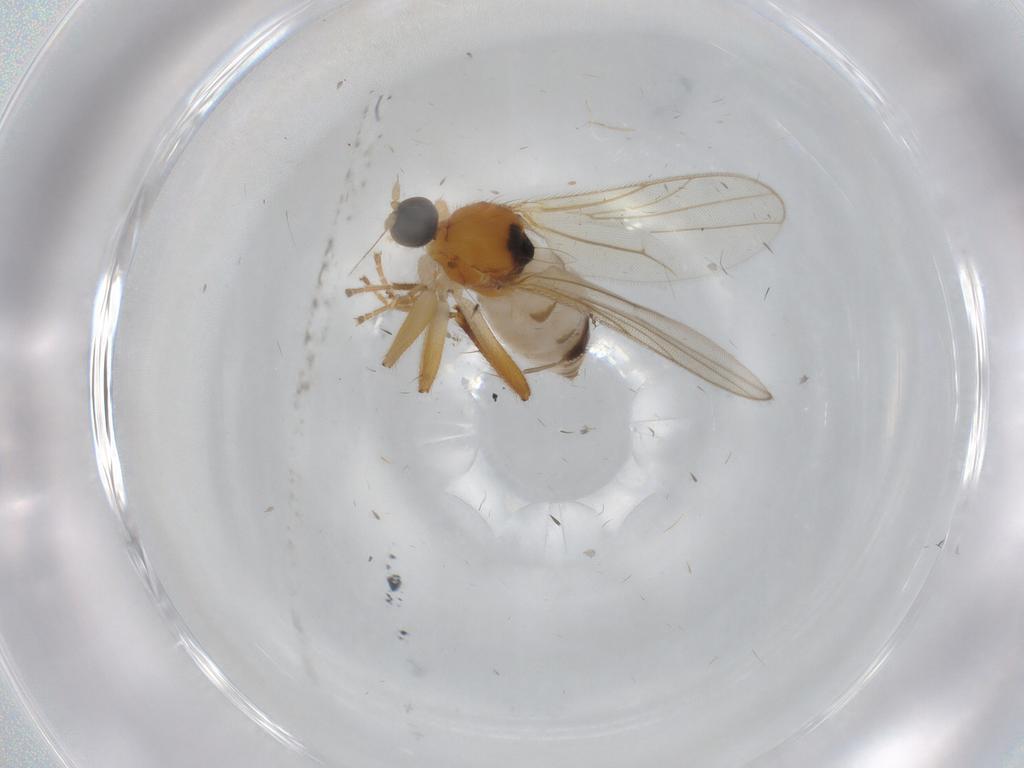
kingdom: Animalia
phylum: Arthropoda
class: Insecta
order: Diptera
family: Hybotidae
